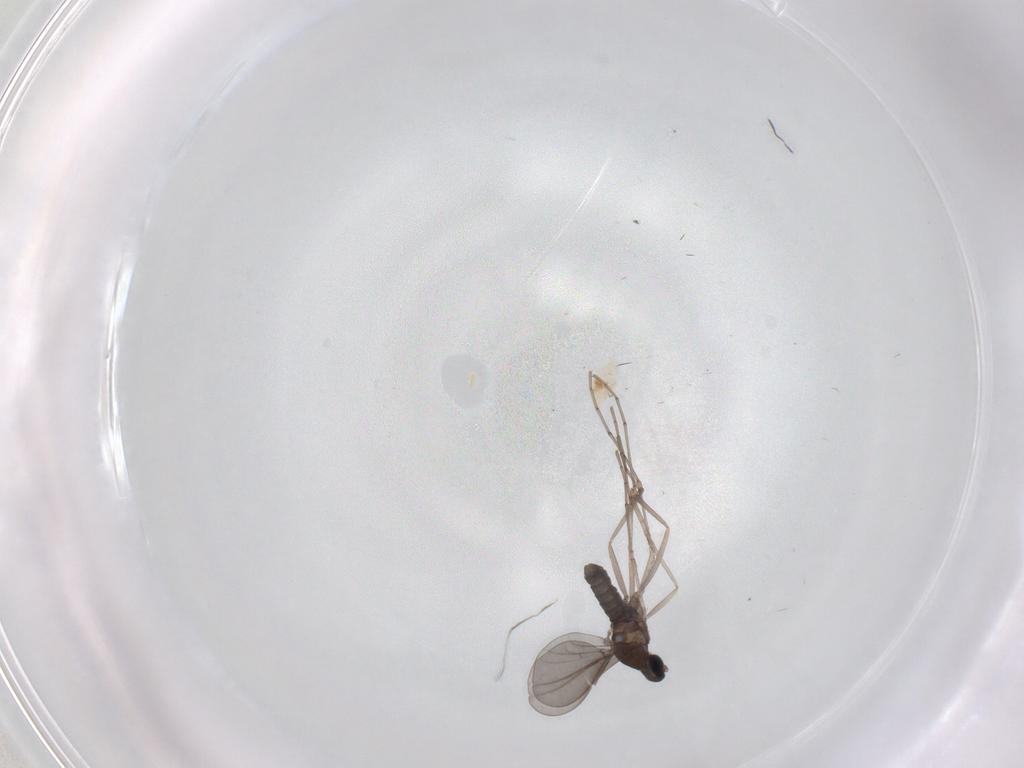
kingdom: Animalia
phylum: Arthropoda
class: Insecta
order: Diptera
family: Cecidomyiidae
